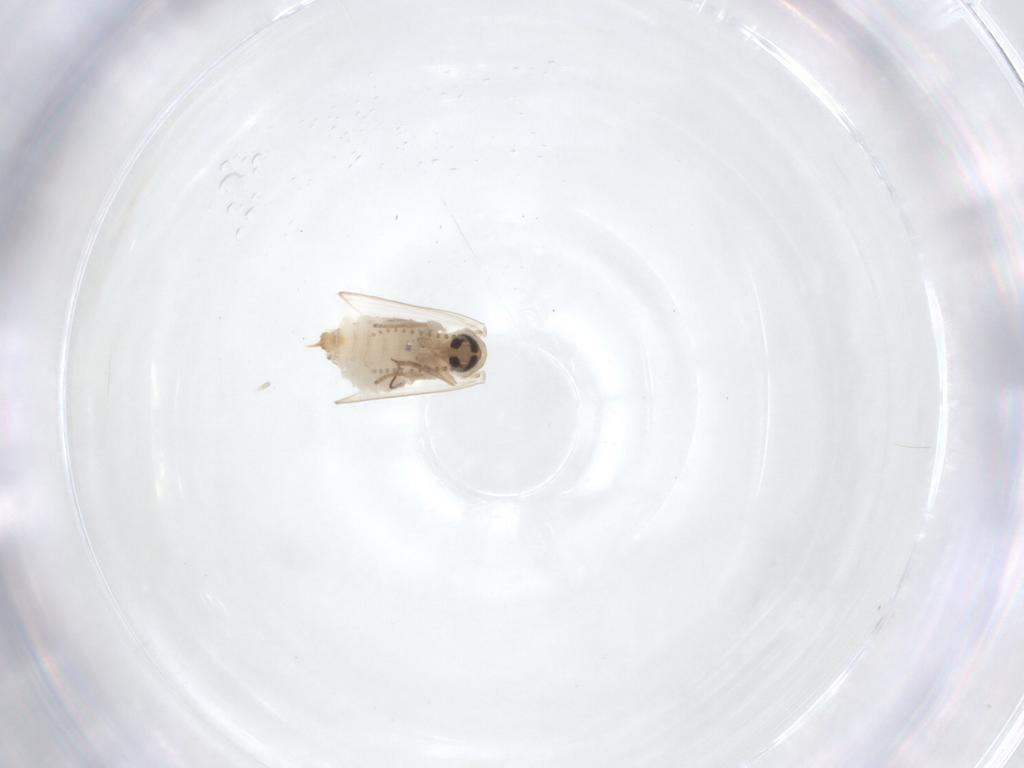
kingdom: Animalia
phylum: Arthropoda
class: Insecta
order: Diptera
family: Psychodidae
